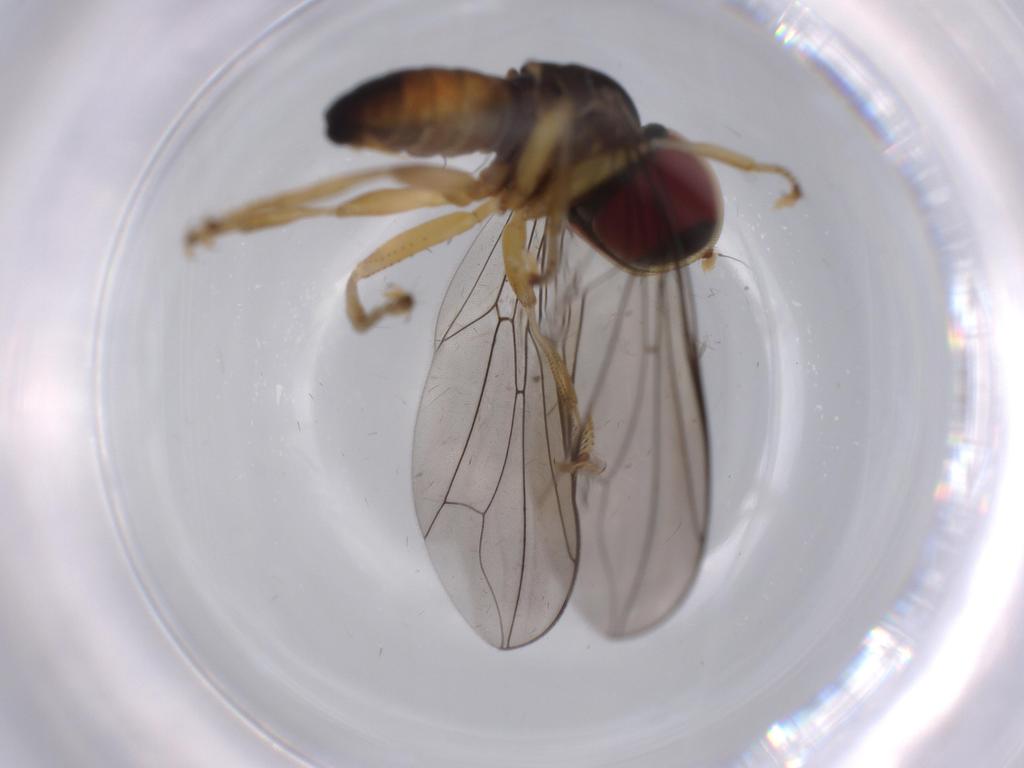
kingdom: Animalia
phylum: Arthropoda
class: Insecta
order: Diptera
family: Pipunculidae
